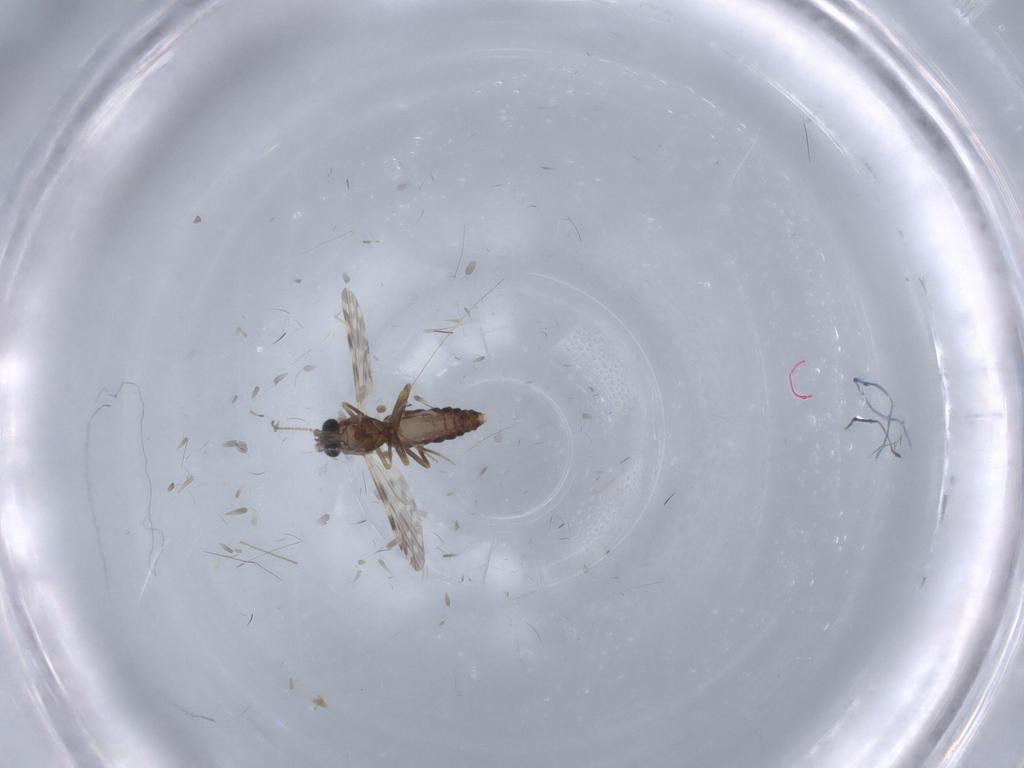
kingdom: Animalia
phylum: Arthropoda
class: Insecta
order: Diptera
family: Ceratopogonidae
